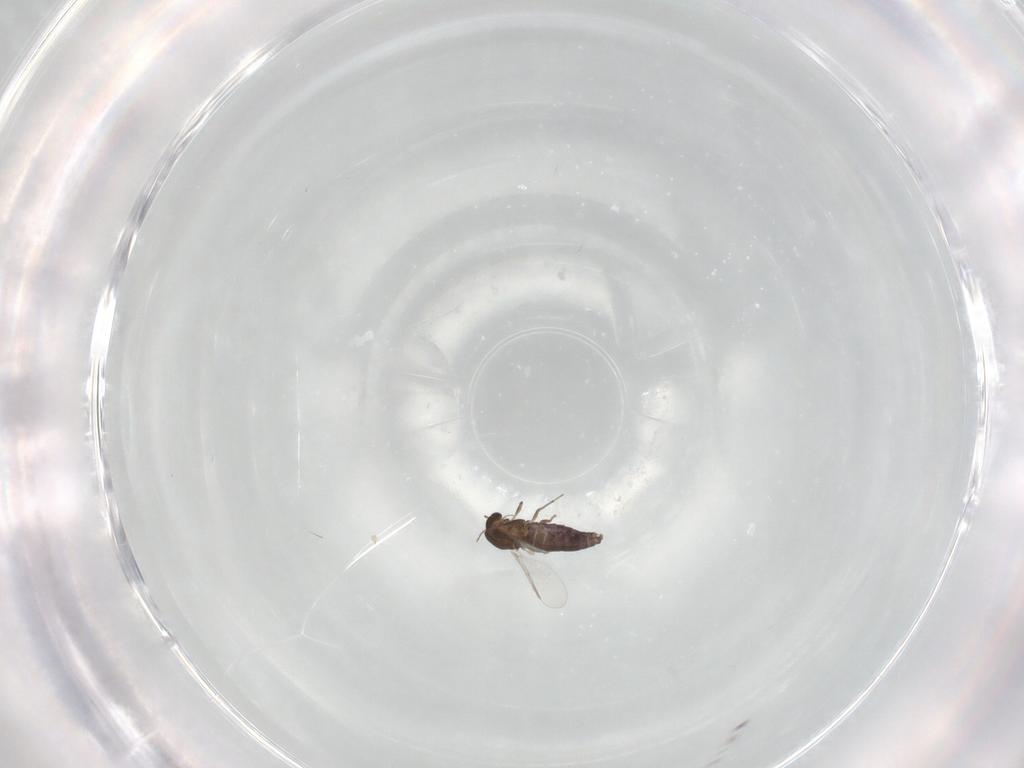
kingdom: Animalia
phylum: Arthropoda
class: Insecta
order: Diptera
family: Chironomidae
